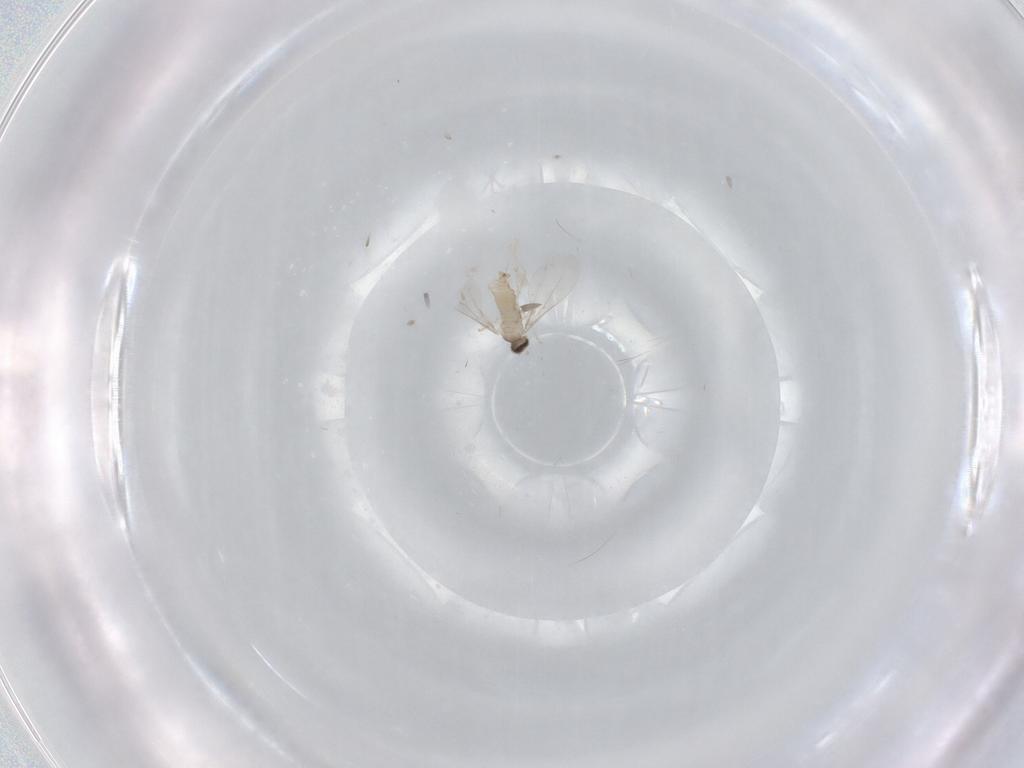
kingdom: Animalia
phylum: Arthropoda
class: Insecta
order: Diptera
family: Cecidomyiidae
